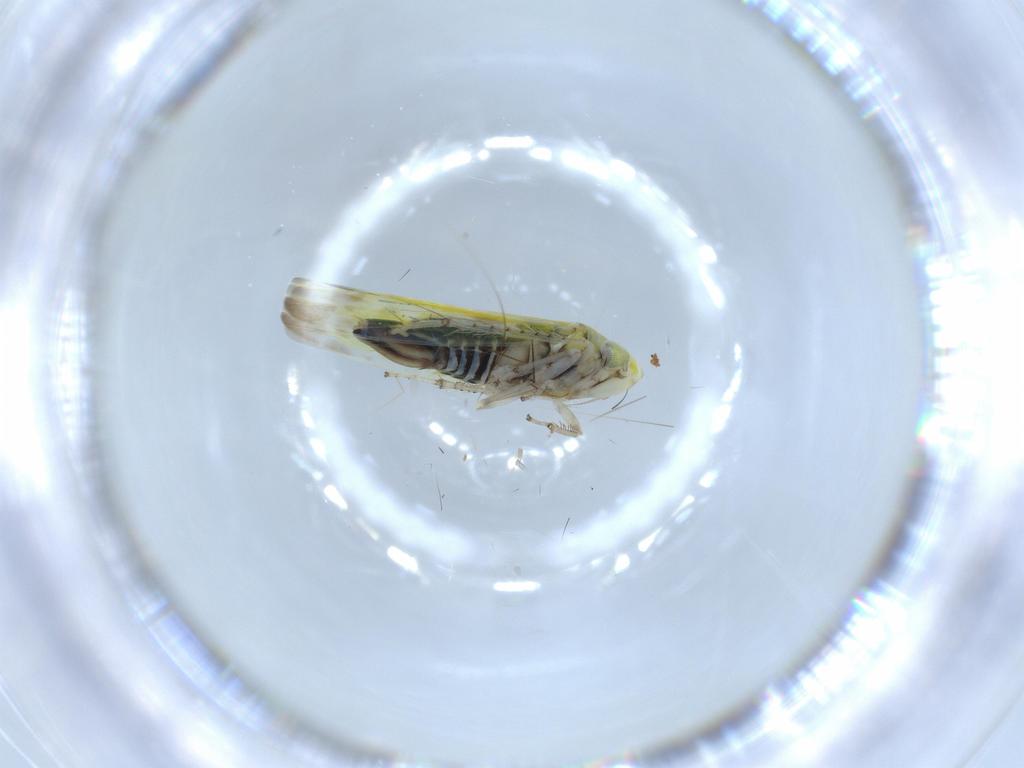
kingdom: Animalia
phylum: Arthropoda
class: Insecta
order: Hemiptera
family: Cicadellidae
